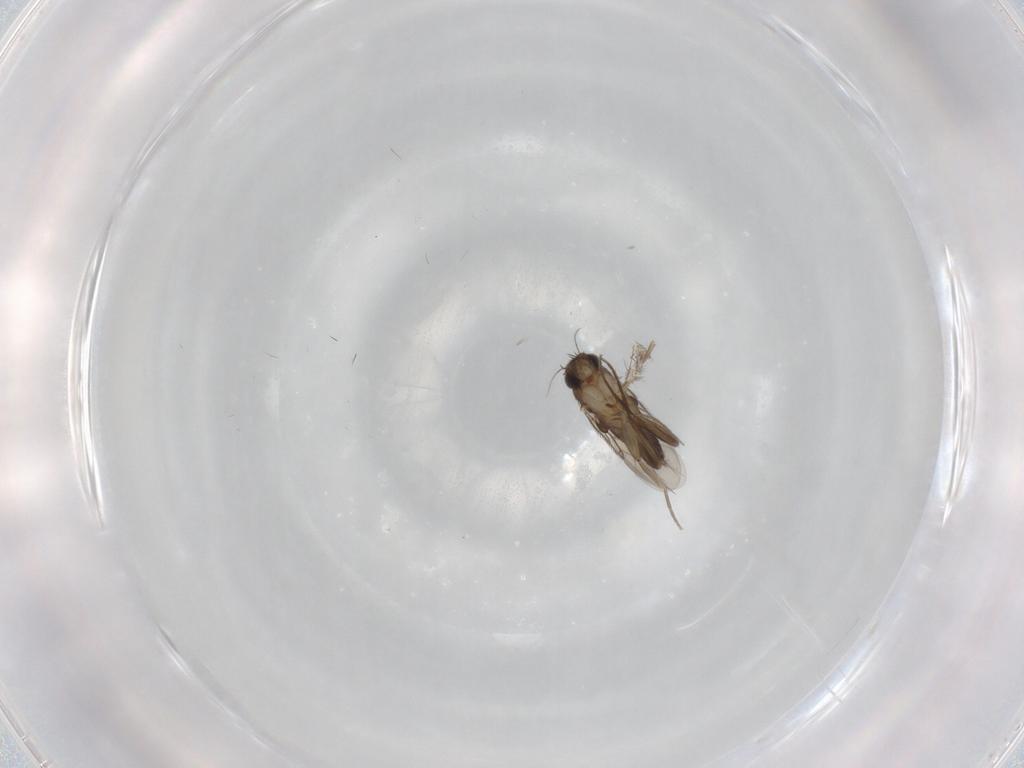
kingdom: Animalia
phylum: Arthropoda
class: Insecta
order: Diptera
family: Chironomidae
